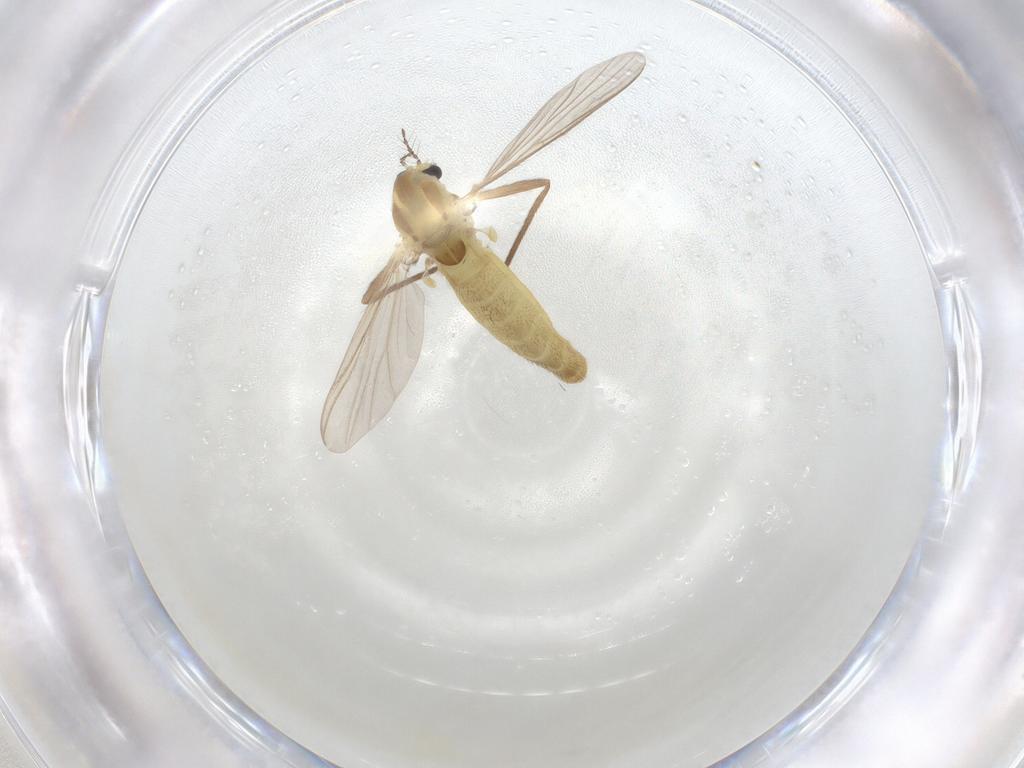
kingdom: Animalia
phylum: Arthropoda
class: Insecta
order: Diptera
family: Chironomidae
